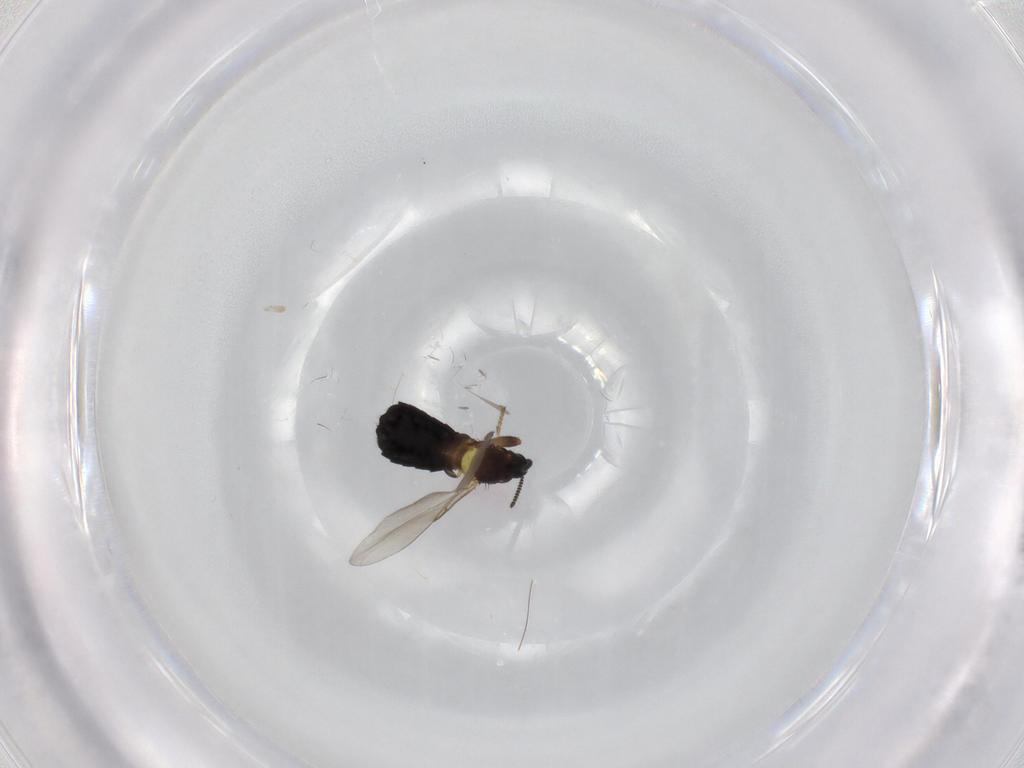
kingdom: Animalia
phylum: Arthropoda
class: Insecta
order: Diptera
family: Scatopsidae
